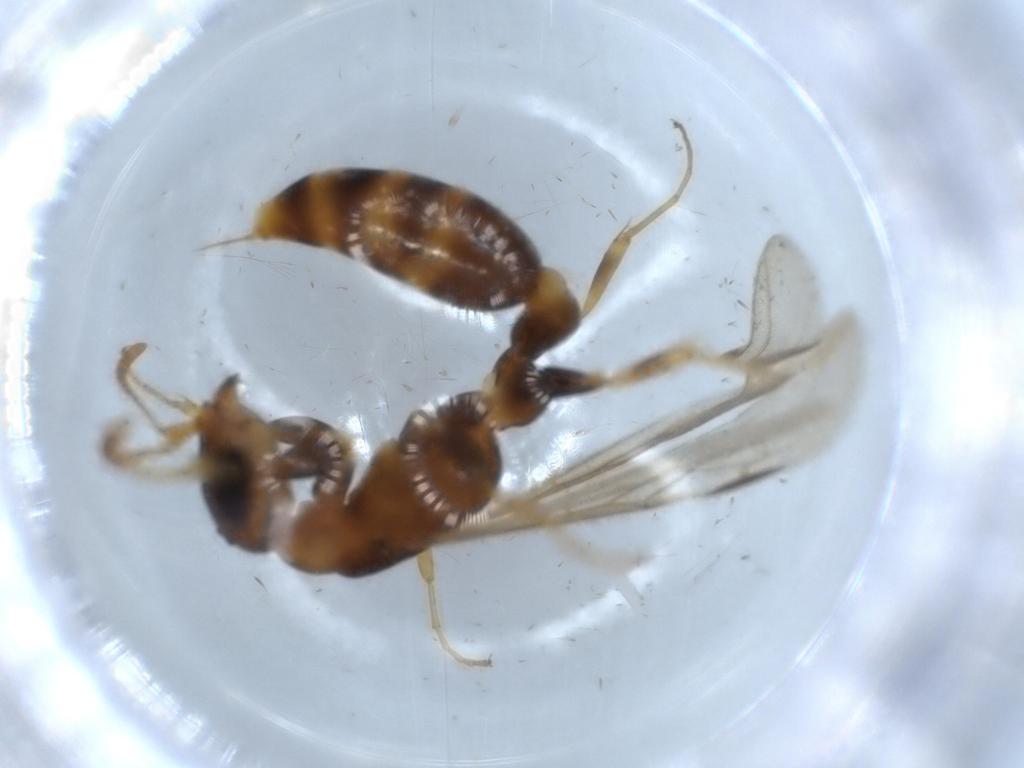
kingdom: Animalia
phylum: Arthropoda
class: Insecta
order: Hymenoptera
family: Formicidae
